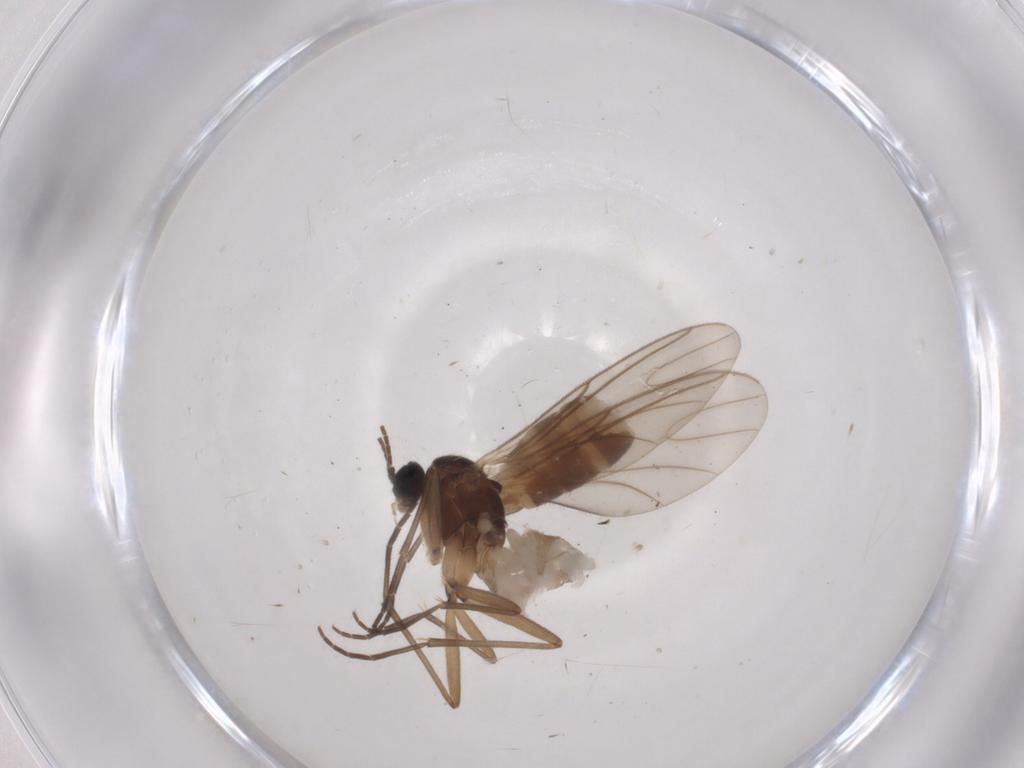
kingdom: Animalia
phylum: Arthropoda
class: Insecta
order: Diptera
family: Sciaridae
